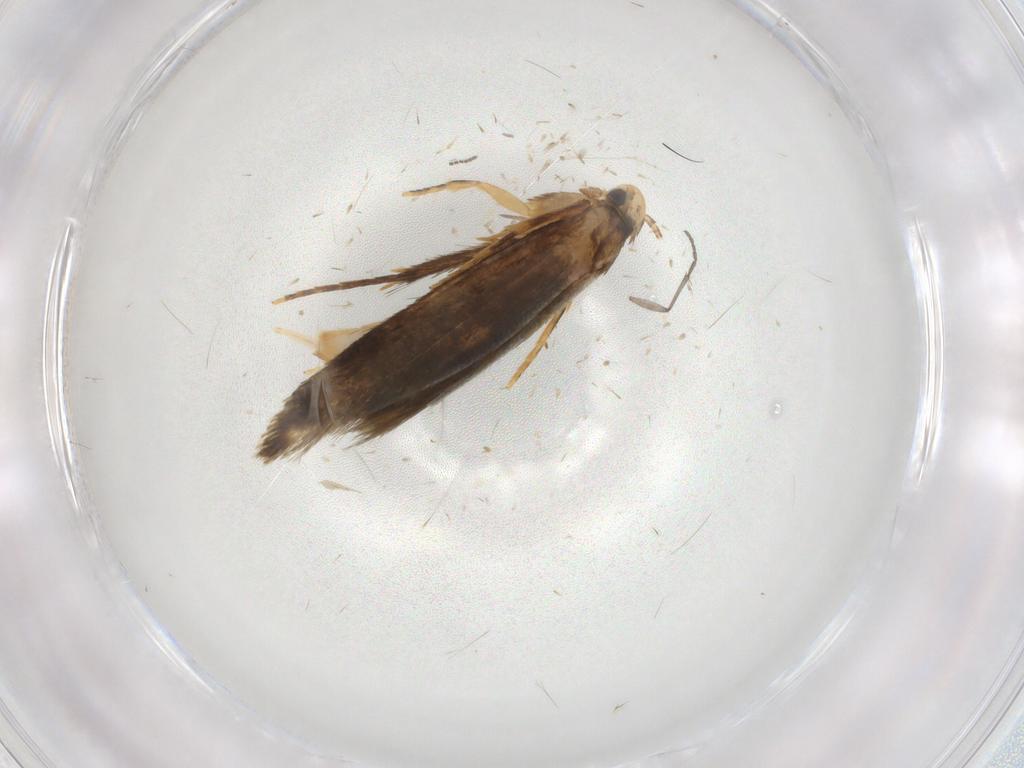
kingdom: Animalia
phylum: Arthropoda
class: Insecta
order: Lepidoptera
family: Tineidae
